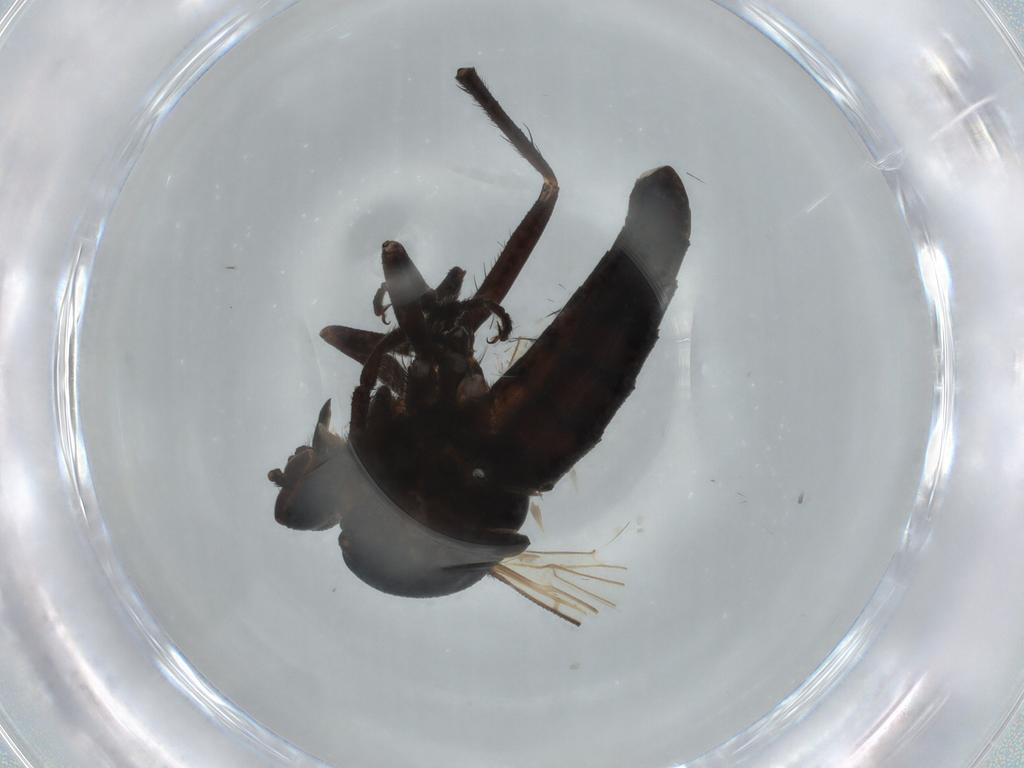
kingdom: Animalia
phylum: Arthropoda
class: Insecta
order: Diptera
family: Empididae
